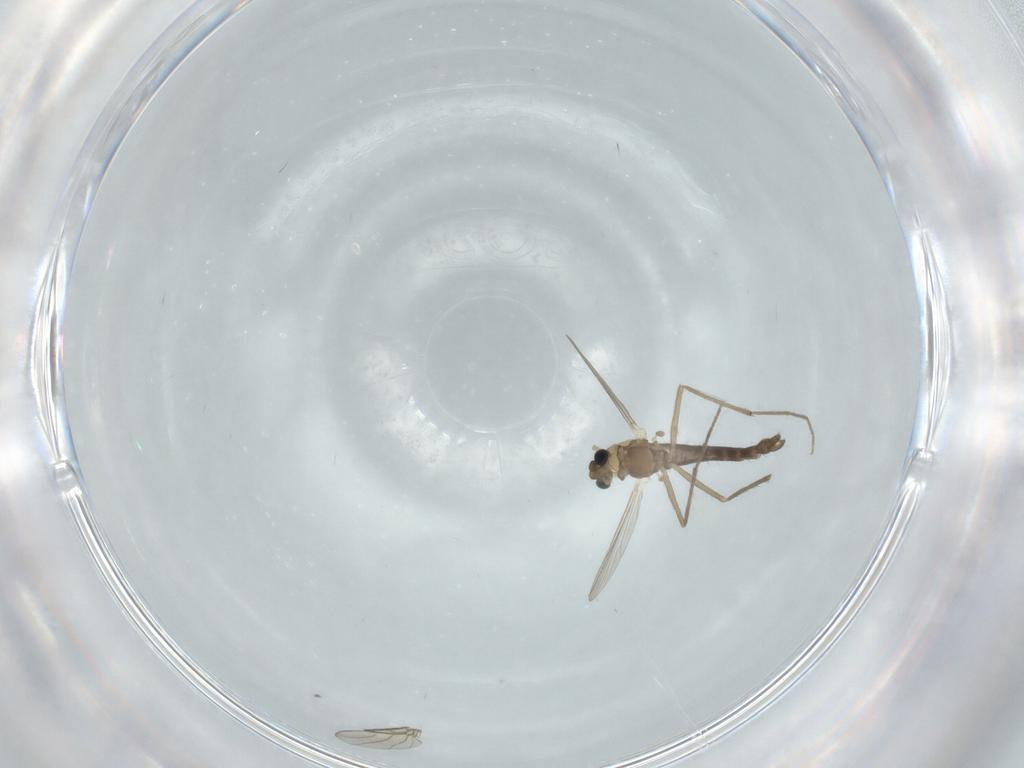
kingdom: Animalia
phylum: Arthropoda
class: Insecta
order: Diptera
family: Chironomidae
